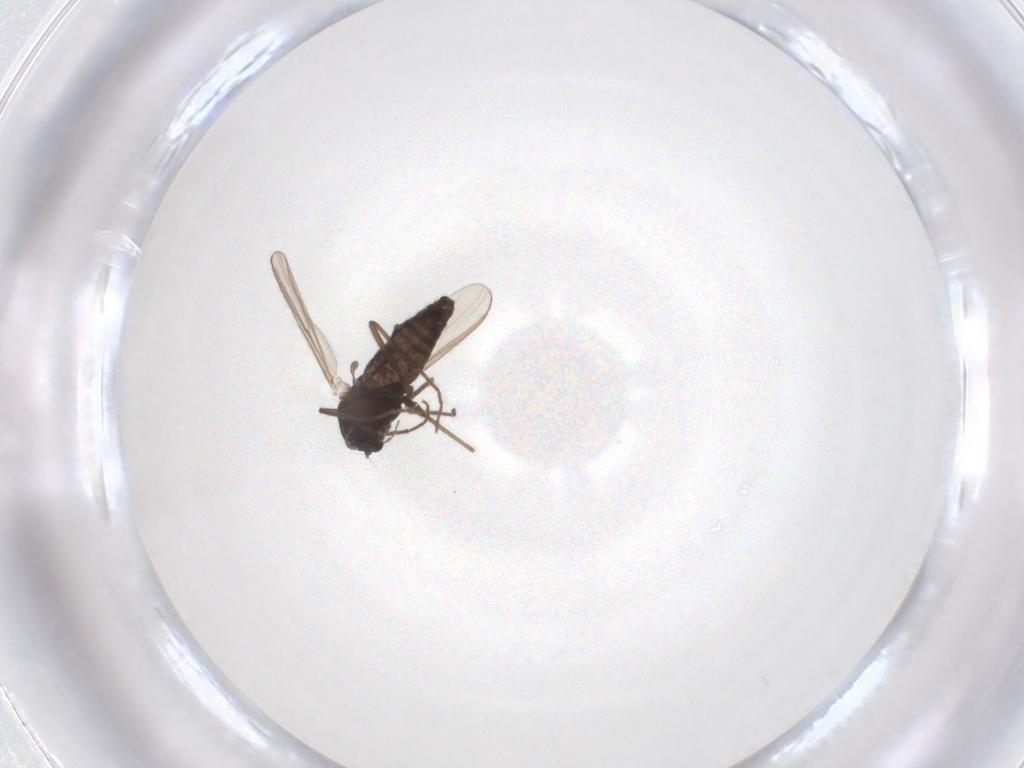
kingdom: Animalia
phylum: Arthropoda
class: Insecta
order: Diptera
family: Chironomidae
